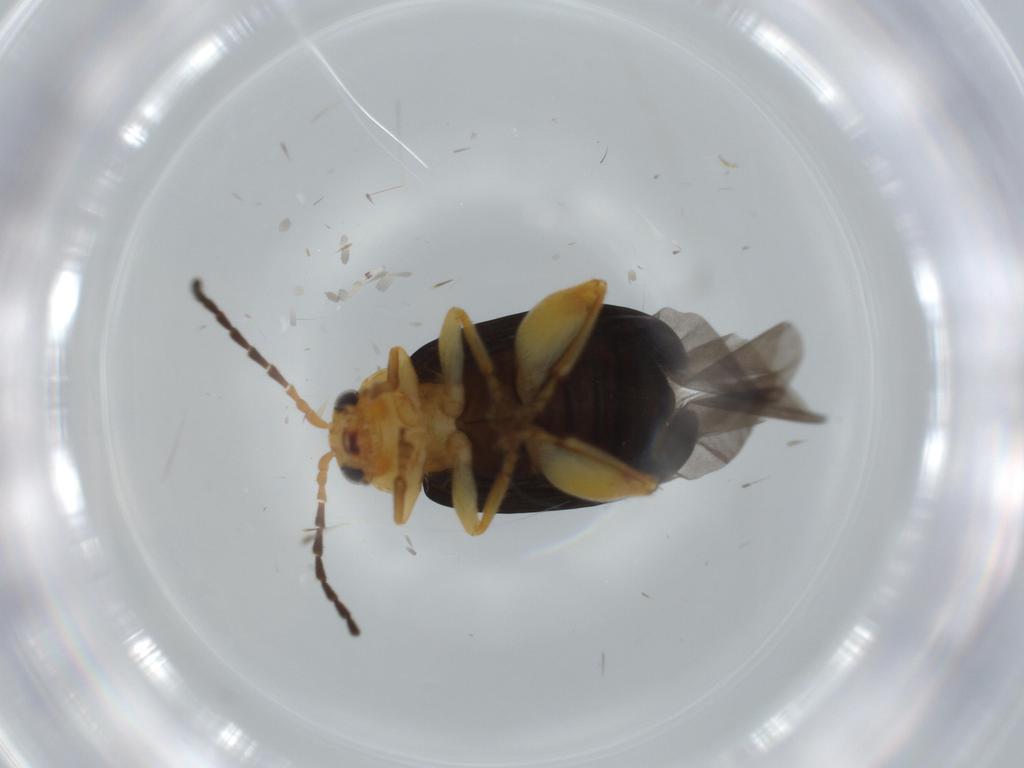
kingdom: Animalia
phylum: Arthropoda
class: Insecta
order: Coleoptera
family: Chrysomelidae
